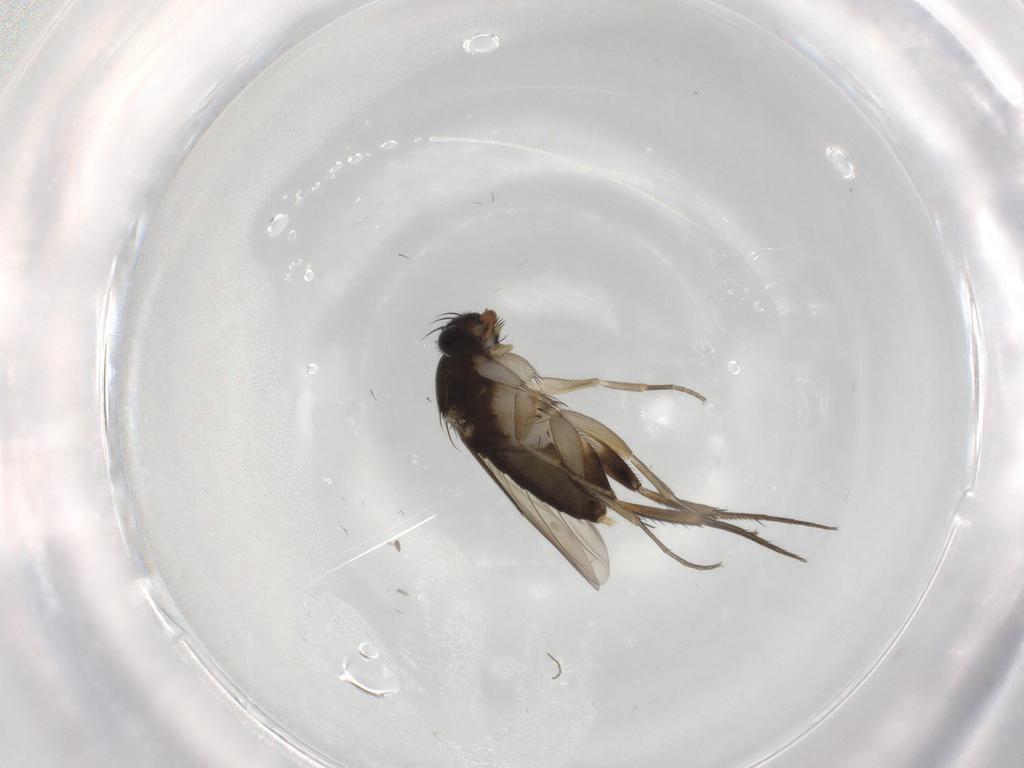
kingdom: Animalia
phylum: Arthropoda
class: Insecta
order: Diptera
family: Phoridae
